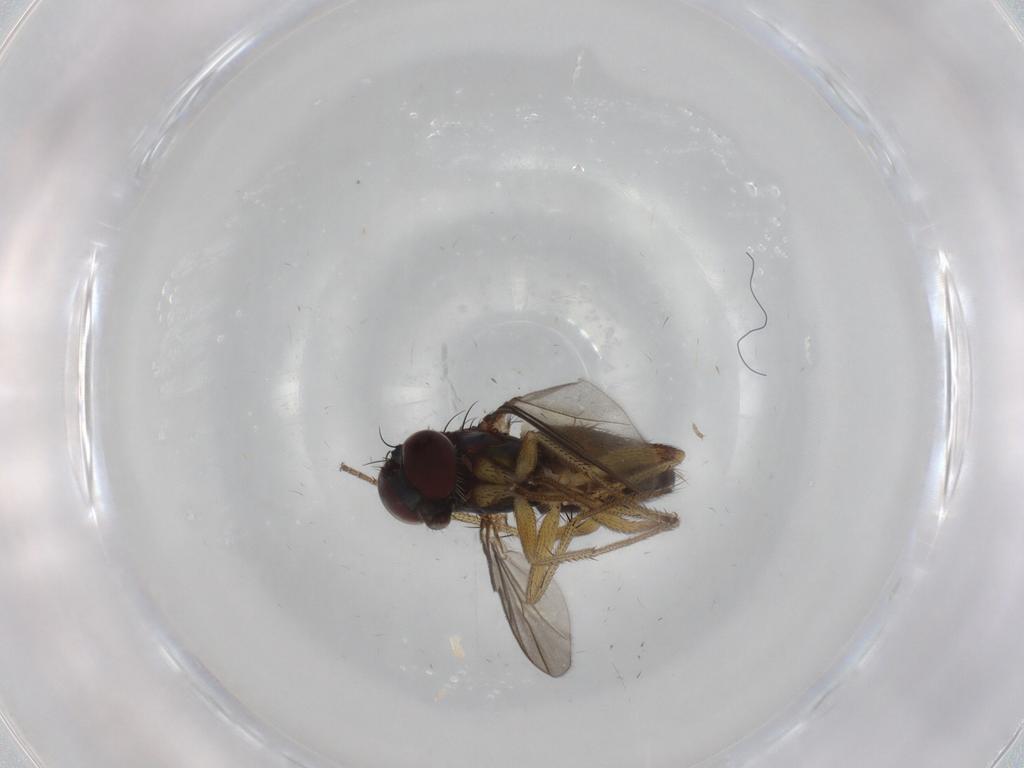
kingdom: Animalia
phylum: Arthropoda
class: Insecta
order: Diptera
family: Dolichopodidae
